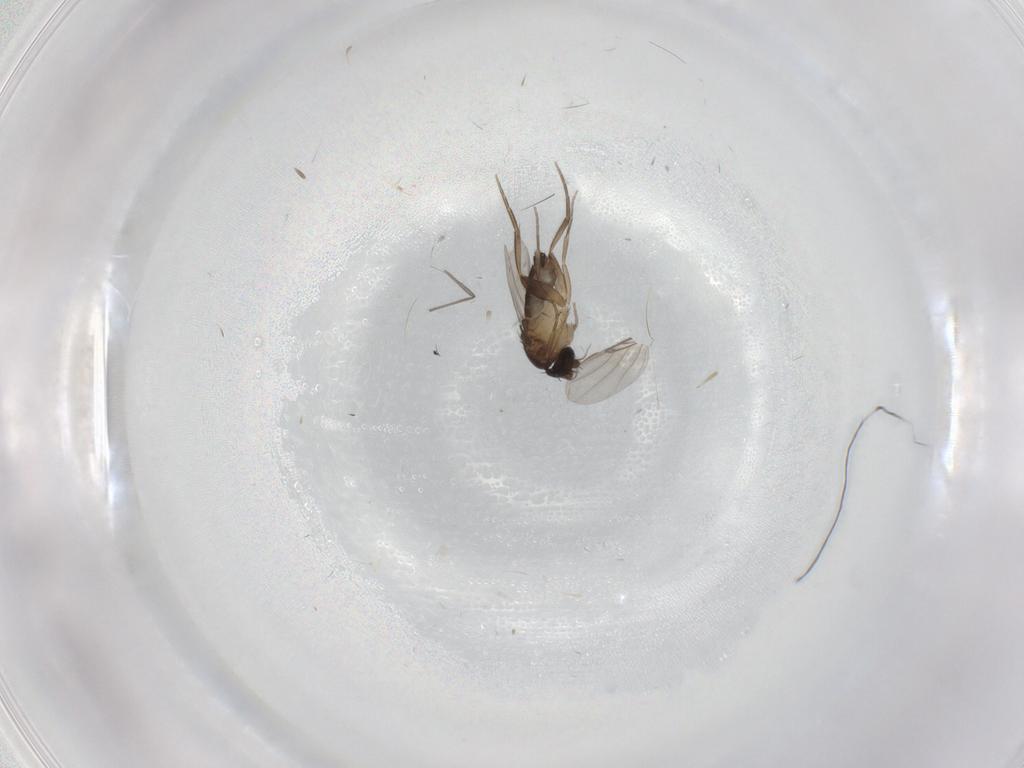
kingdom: Animalia
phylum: Arthropoda
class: Insecta
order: Diptera
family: Phoridae
